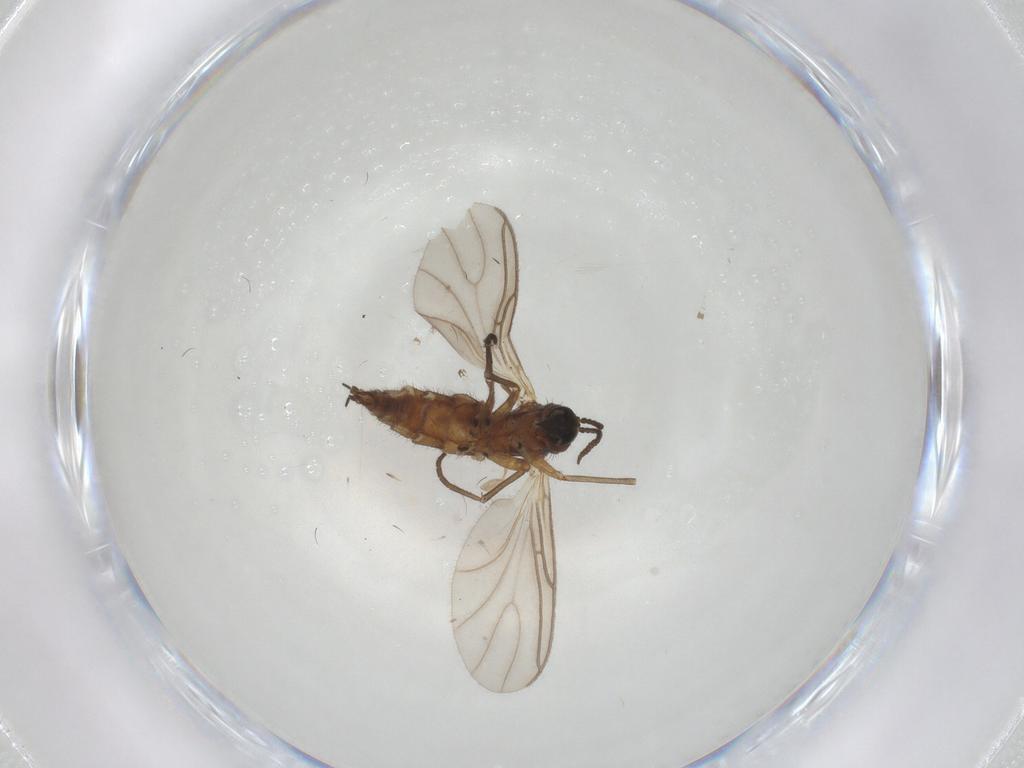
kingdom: Animalia
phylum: Arthropoda
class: Insecta
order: Diptera
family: Sciaridae
